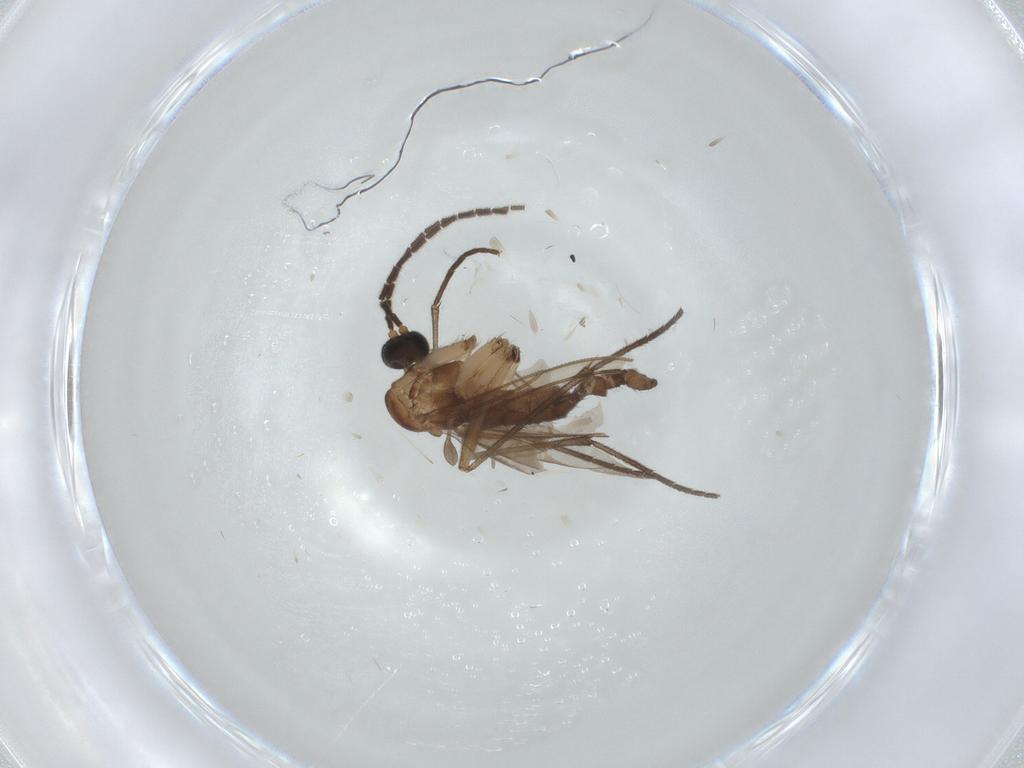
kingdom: Animalia
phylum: Arthropoda
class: Insecta
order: Diptera
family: Sciaridae
